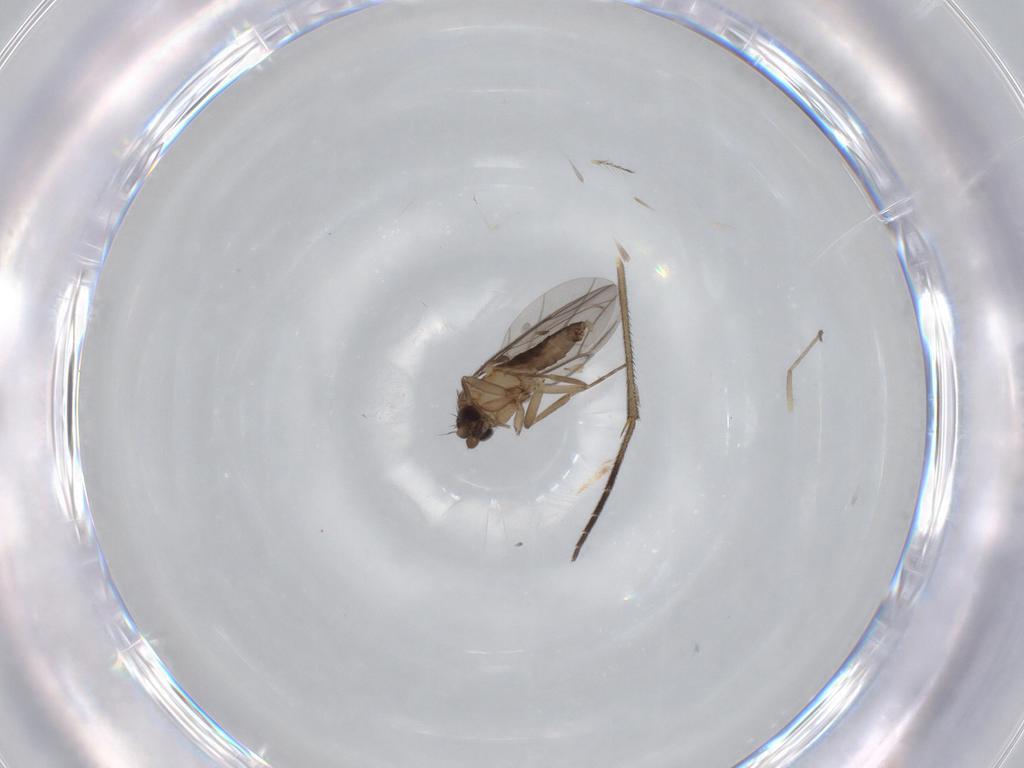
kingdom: Animalia
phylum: Arthropoda
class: Insecta
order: Diptera
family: Phoridae
